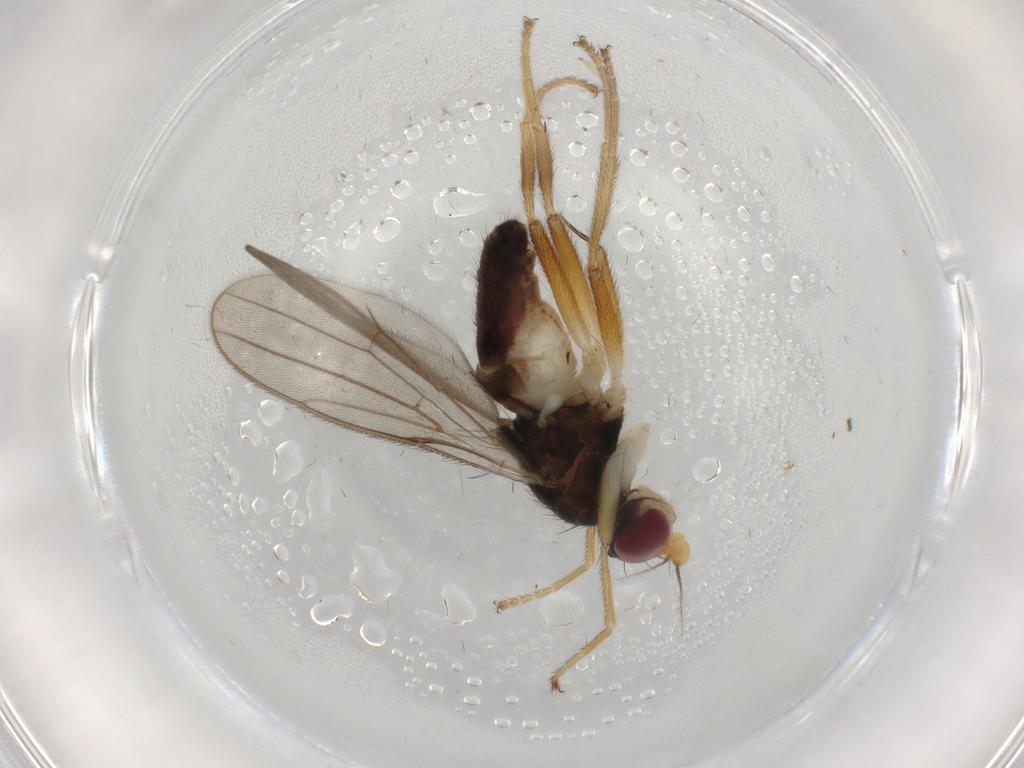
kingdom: Animalia
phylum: Arthropoda
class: Insecta
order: Diptera
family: Chloropidae
